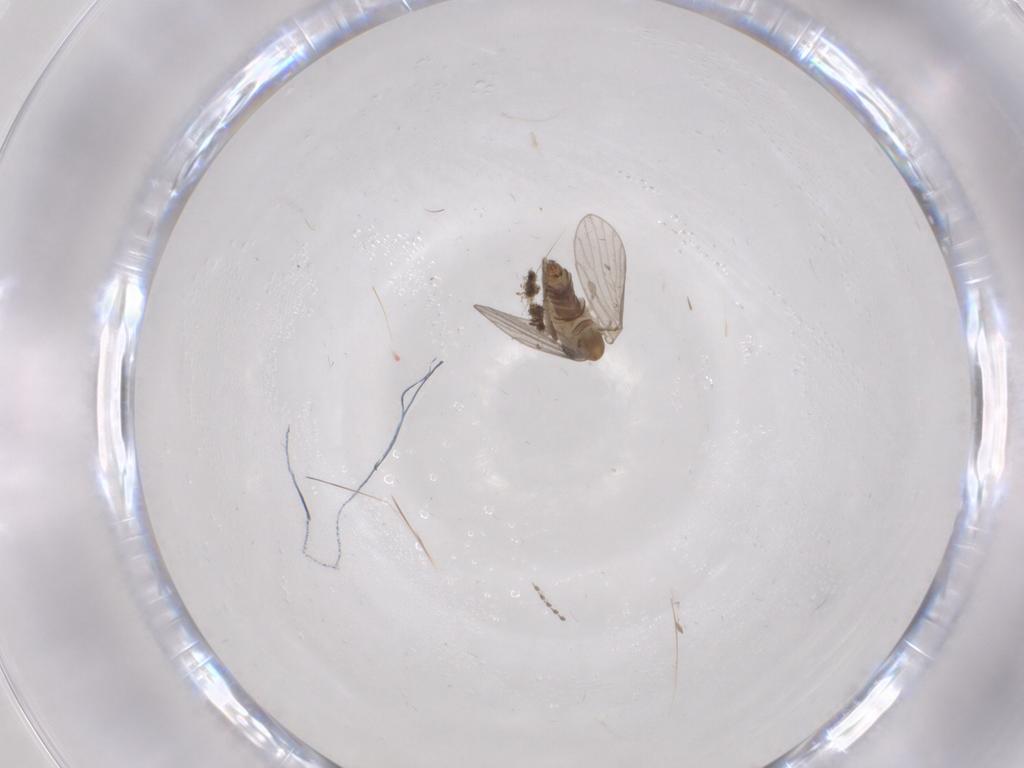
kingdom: Animalia
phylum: Arthropoda
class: Insecta
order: Diptera
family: Psychodidae
